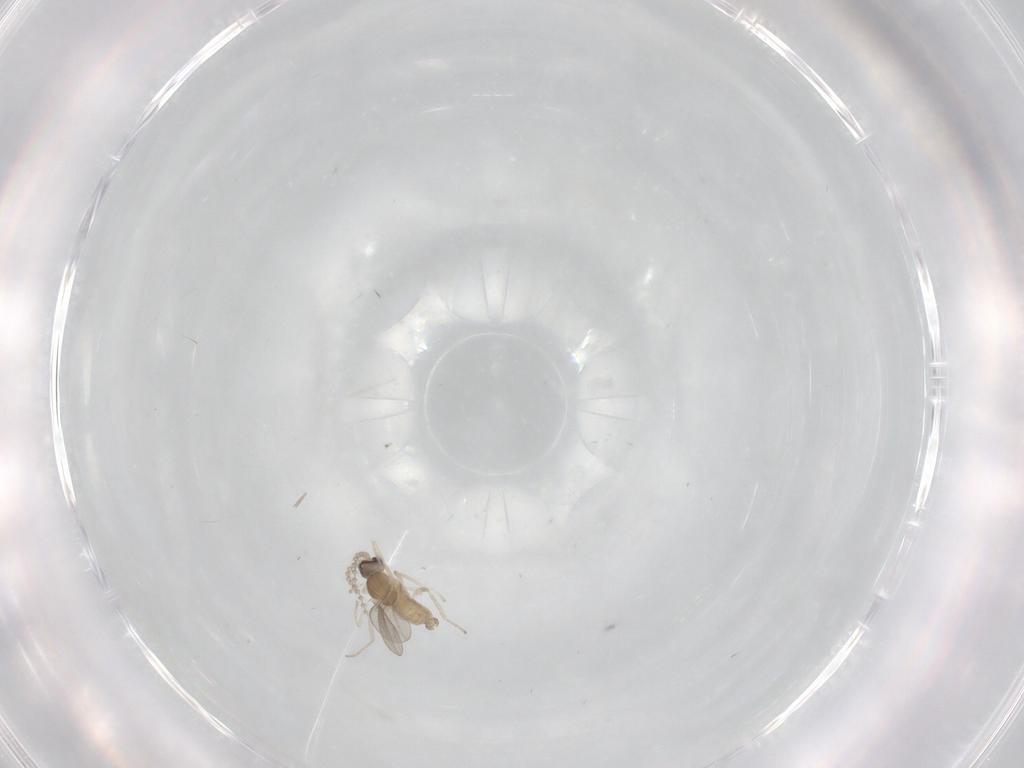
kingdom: Animalia
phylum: Arthropoda
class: Insecta
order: Diptera
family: Cecidomyiidae
